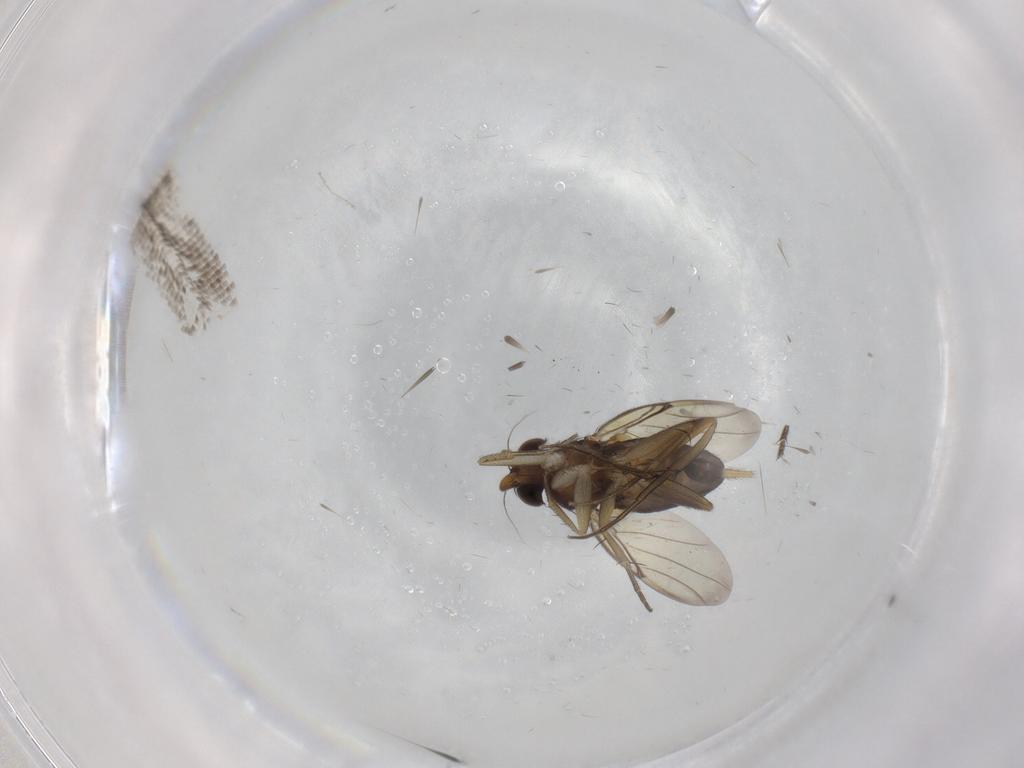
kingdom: Animalia
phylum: Arthropoda
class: Insecta
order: Diptera
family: Phoridae
